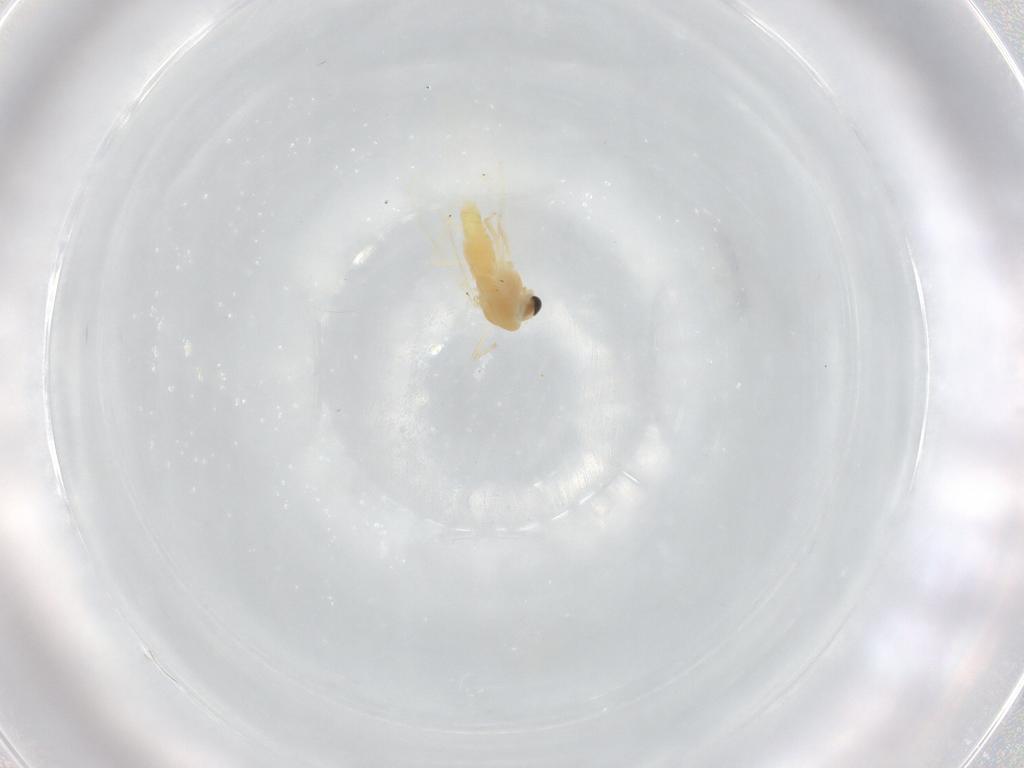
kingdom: Animalia
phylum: Arthropoda
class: Insecta
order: Diptera
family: Chironomidae
